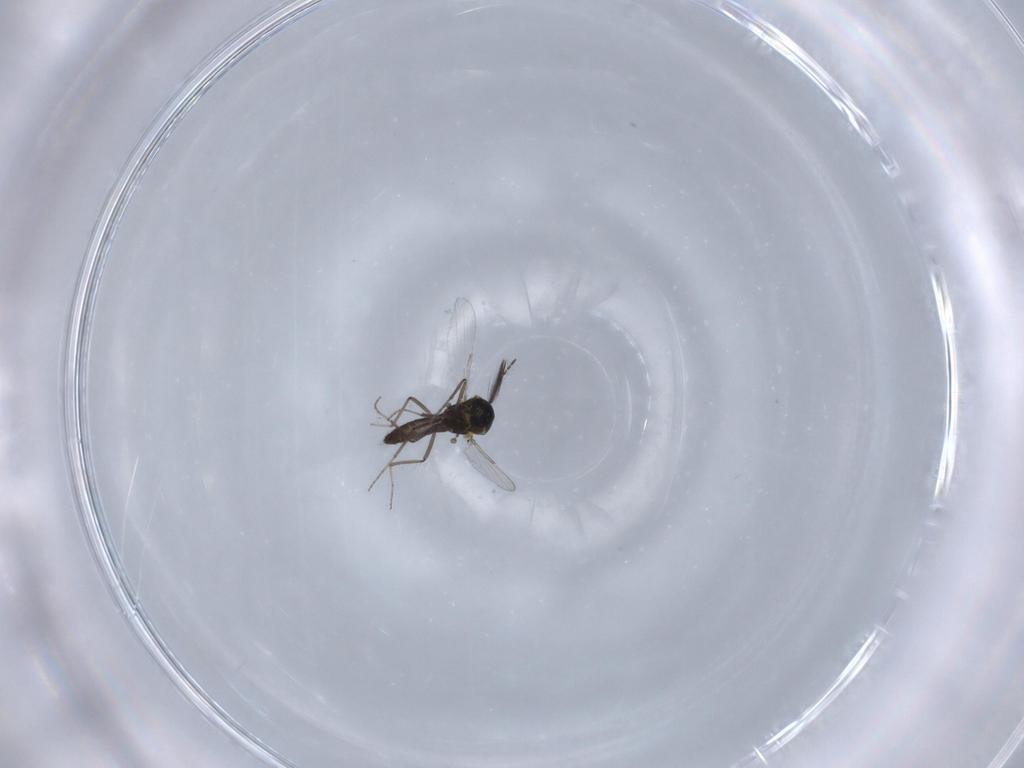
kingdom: Animalia
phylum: Arthropoda
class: Insecta
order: Diptera
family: Ceratopogonidae
